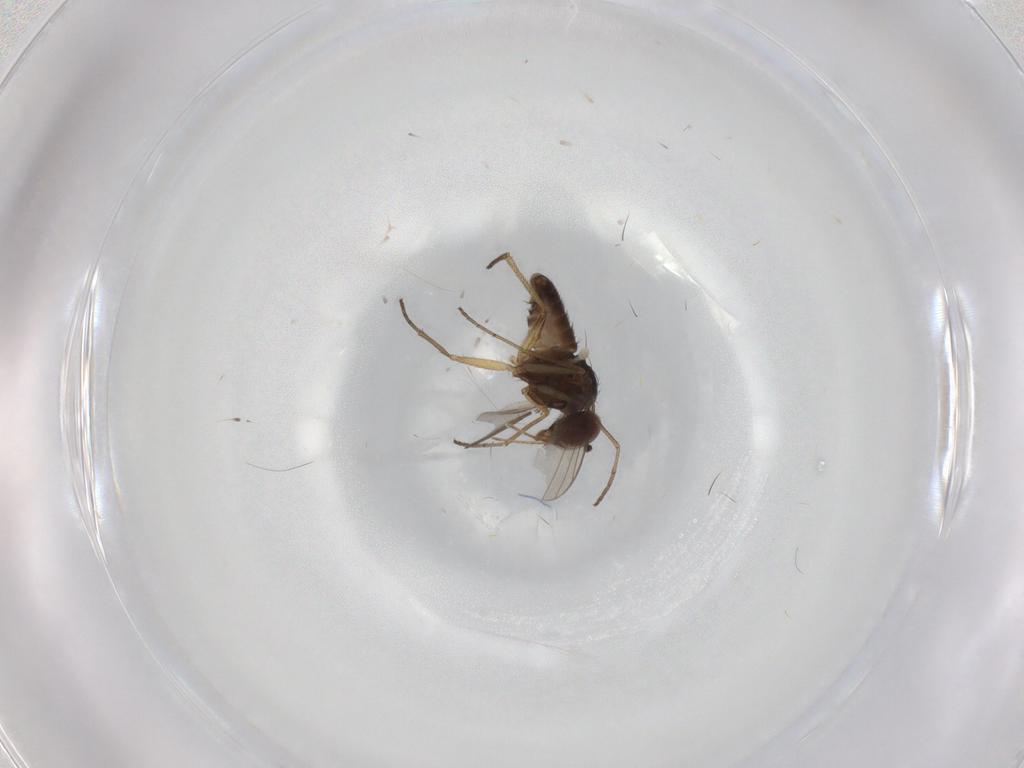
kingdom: Animalia
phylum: Arthropoda
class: Insecta
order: Diptera
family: Dolichopodidae
